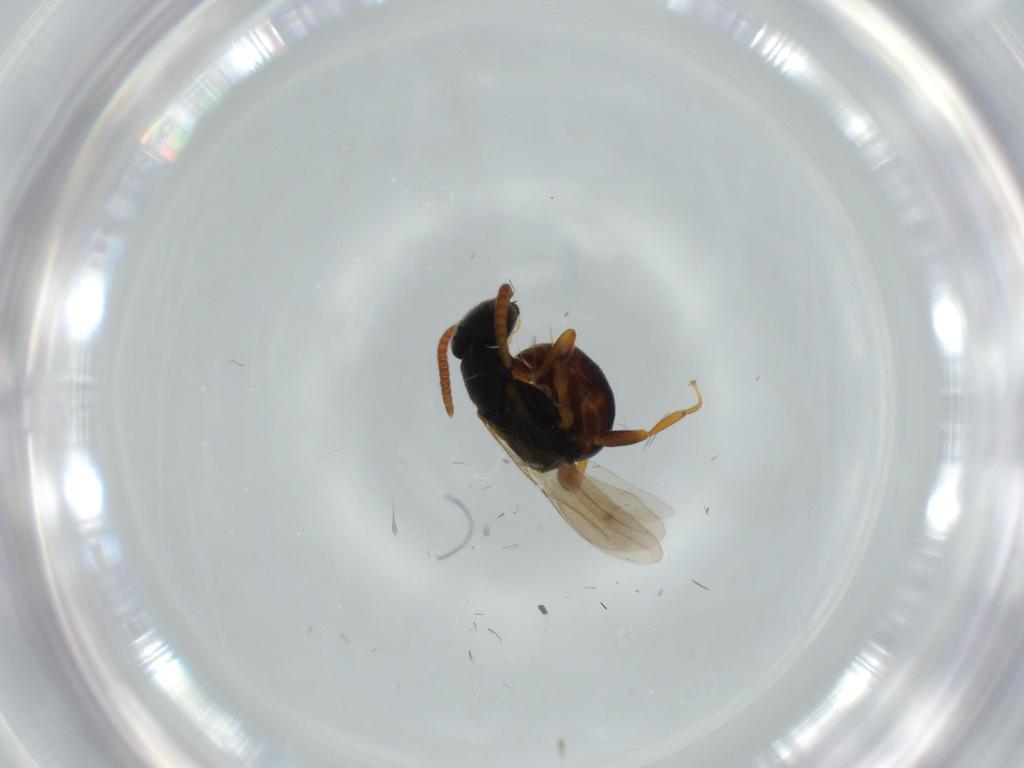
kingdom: Animalia
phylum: Arthropoda
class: Insecta
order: Hymenoptera
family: Bethylidae
